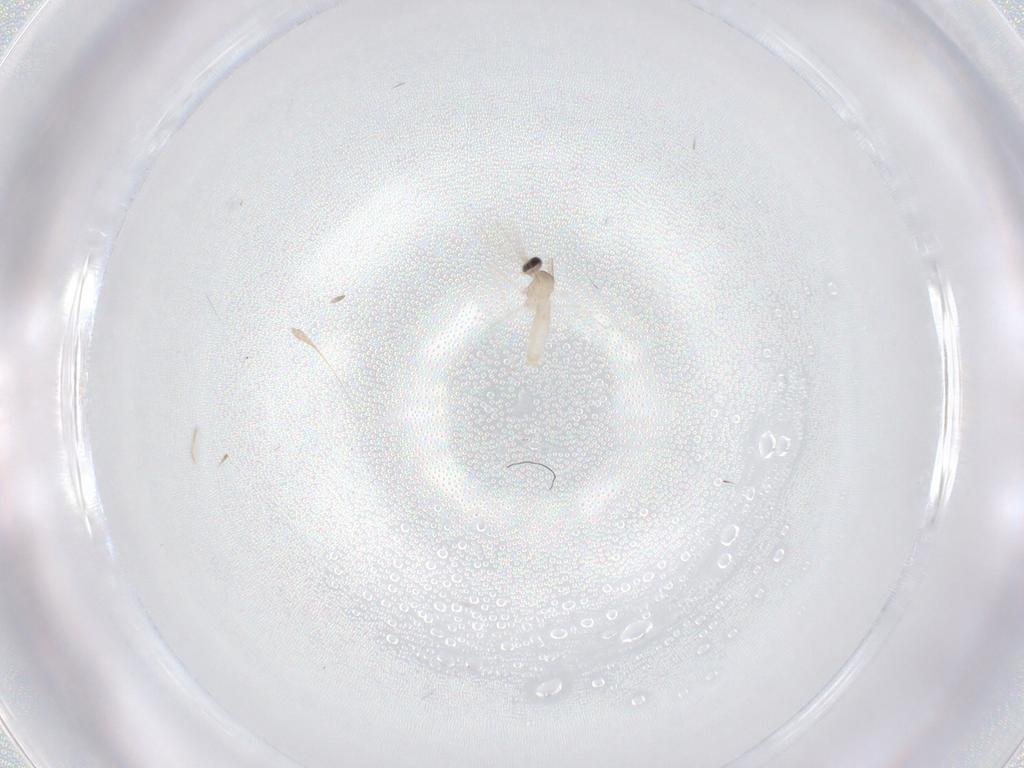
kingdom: Animalia
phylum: Arthropoda
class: Insecta
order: Diptera
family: Cecidomyiidae
